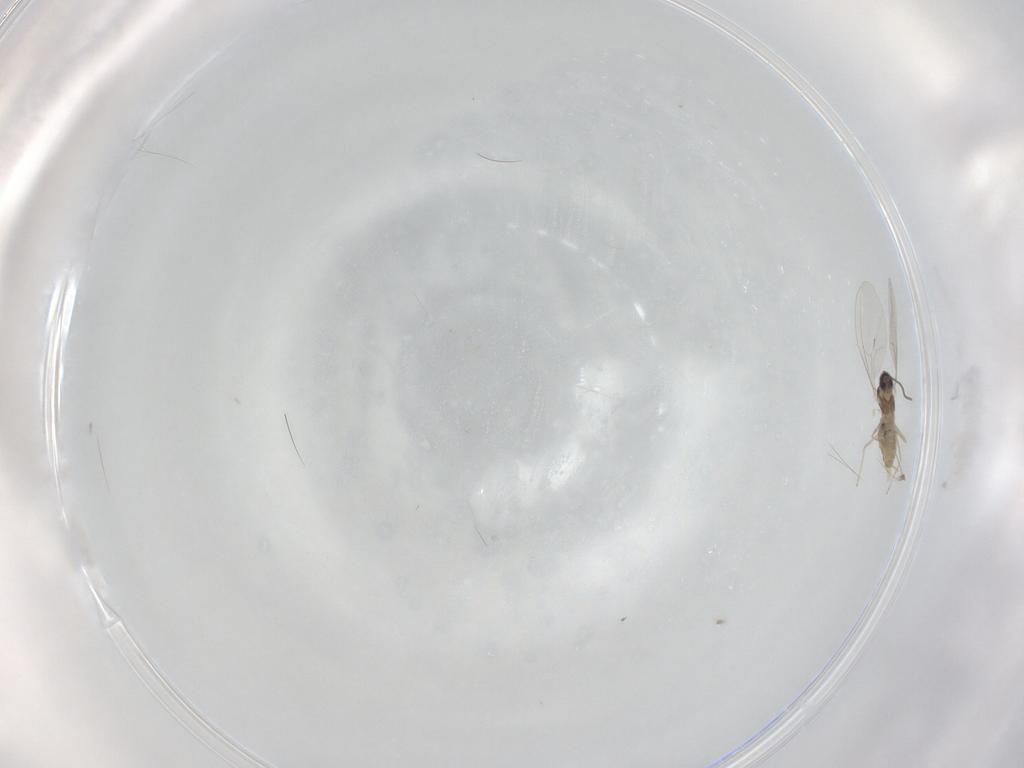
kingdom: Animalia
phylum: Arthropoda
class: Insecta
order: Diptera
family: Cecidomyiidae
